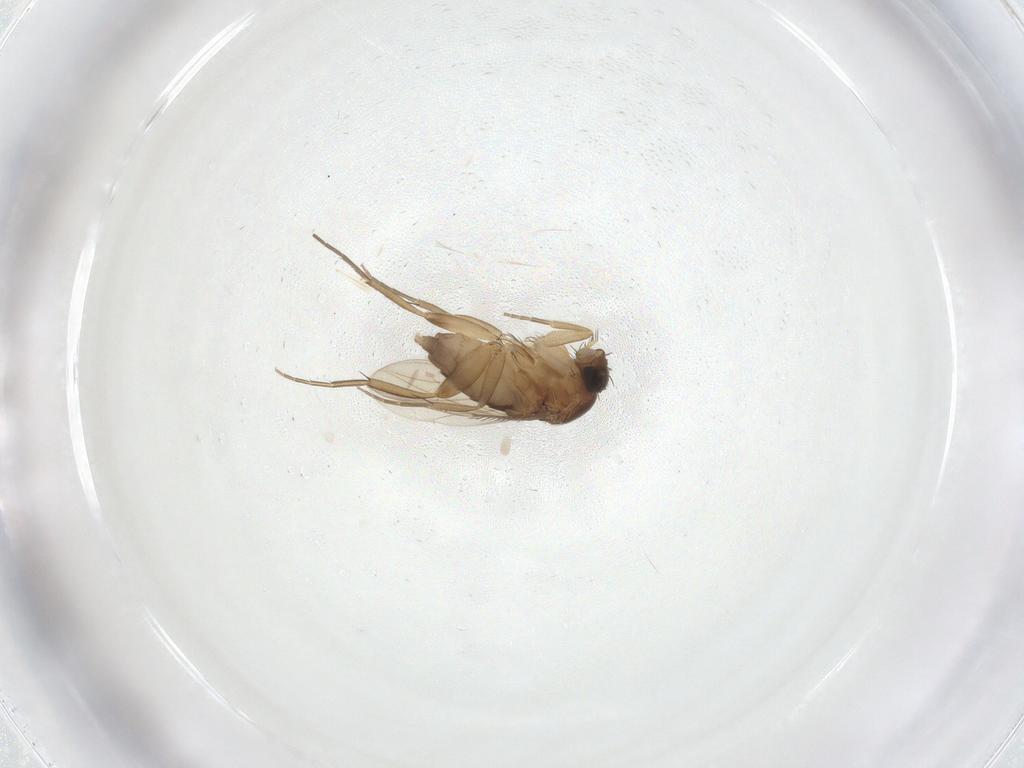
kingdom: Animalia
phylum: Arthropoda
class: Insecta
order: Diptera
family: Phoridae
